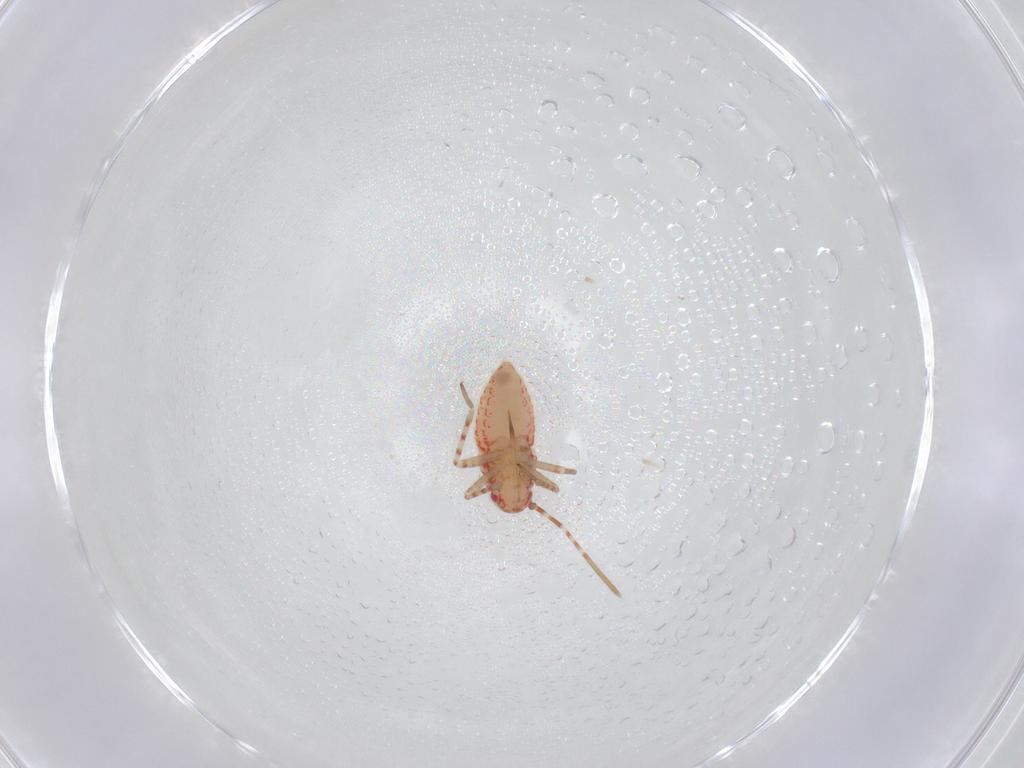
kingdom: Animalia
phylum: Arthropoda
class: Insecta
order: Hemiptera
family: Miridae
